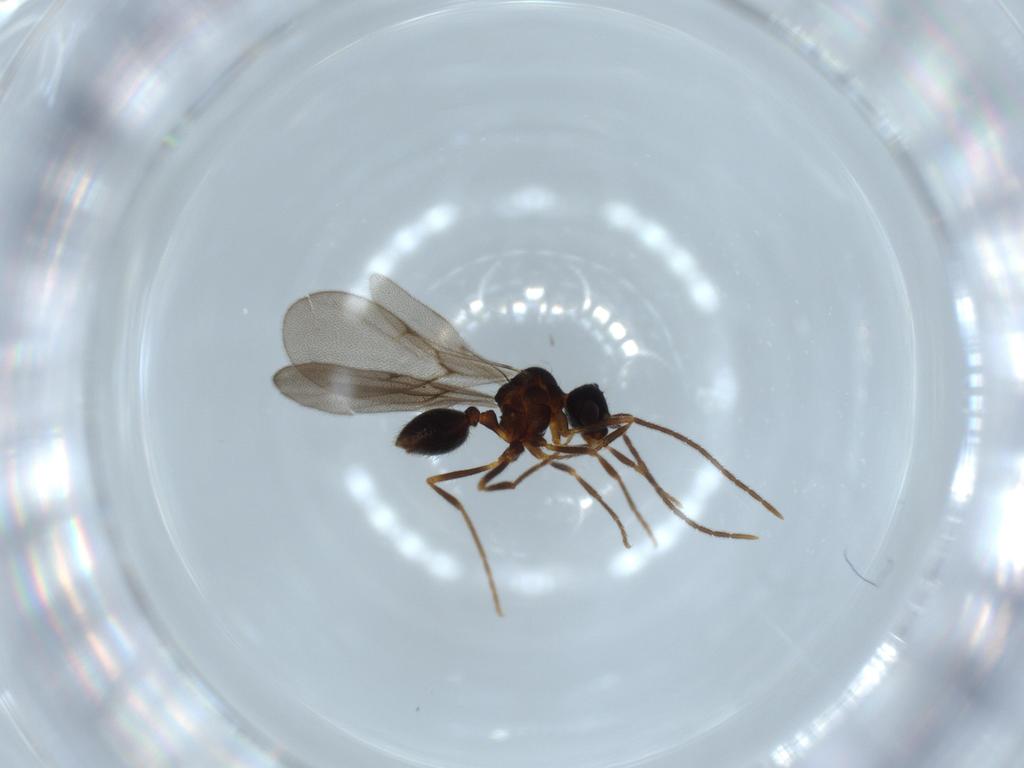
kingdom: Animalia
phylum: Arthropoda
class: Insecta
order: Hymenoptera
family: Formicidae
